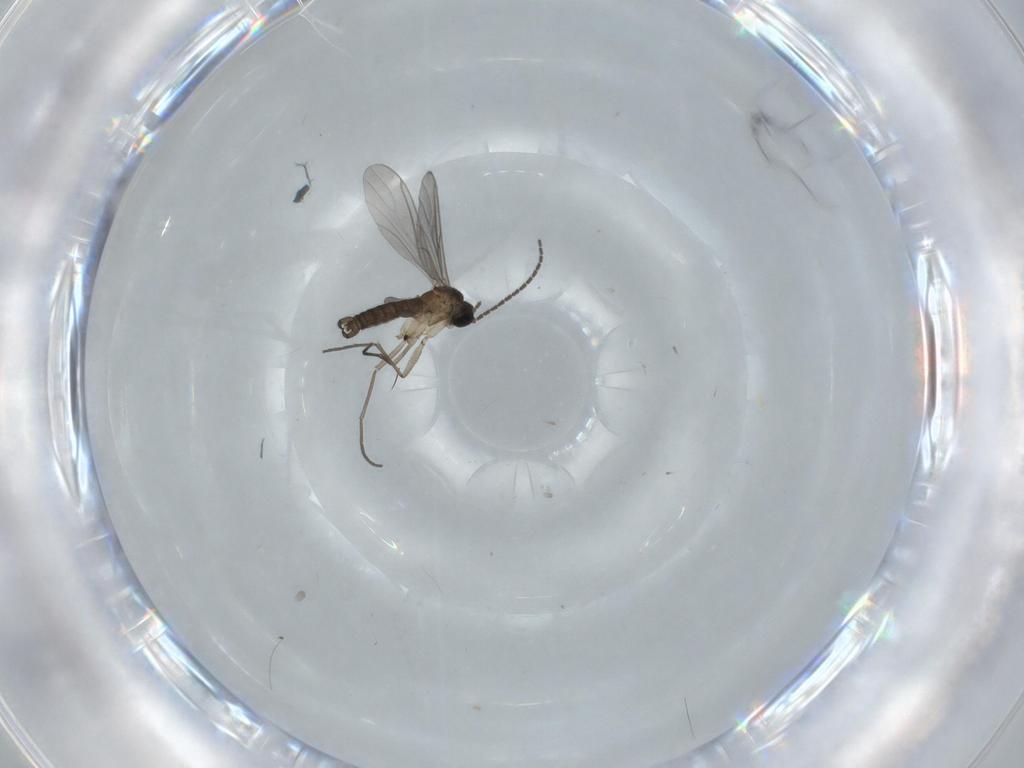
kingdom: Animalia
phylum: Arthropoda
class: Insecta
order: Diptera
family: Sciaridae
